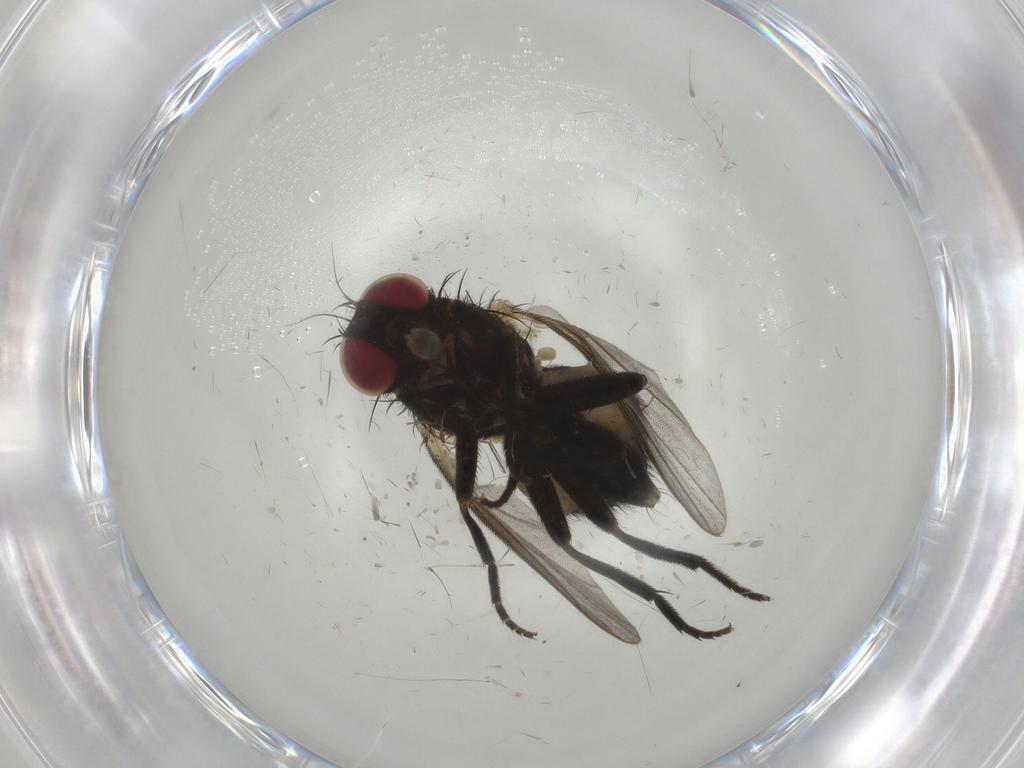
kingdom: Animalia
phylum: Arthropoda
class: Insecta
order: Diptera
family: Agromyzidae
